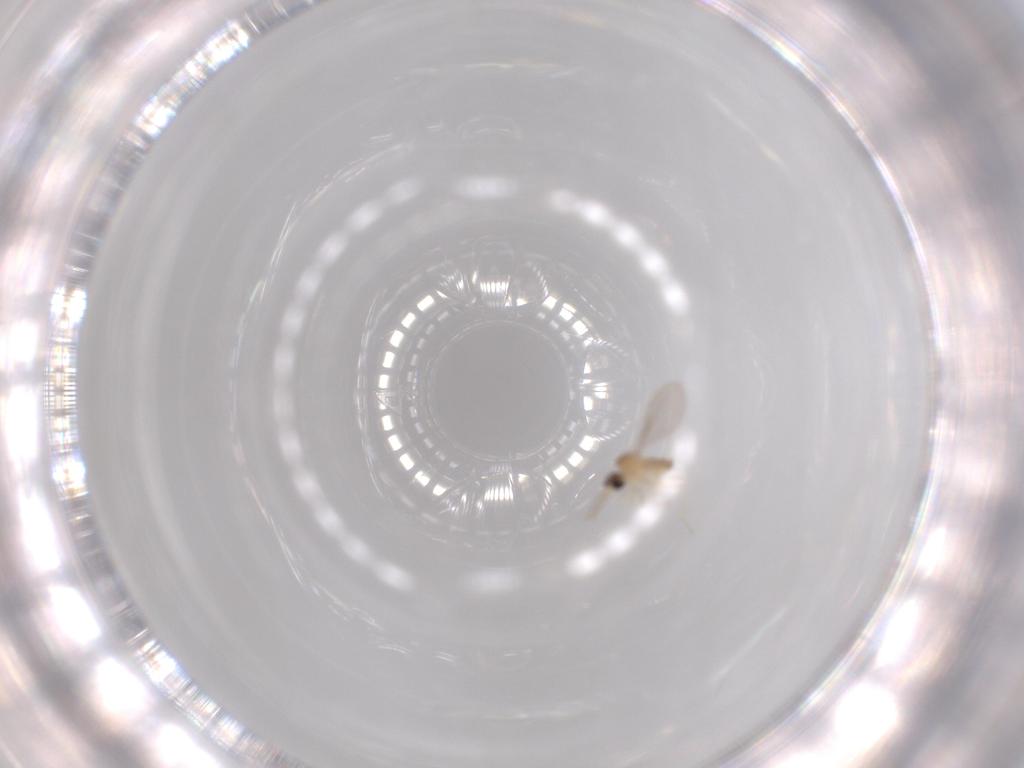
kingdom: Animalia
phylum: Arthropoda
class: Insecta
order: Diptera
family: Cecidomyiidae
